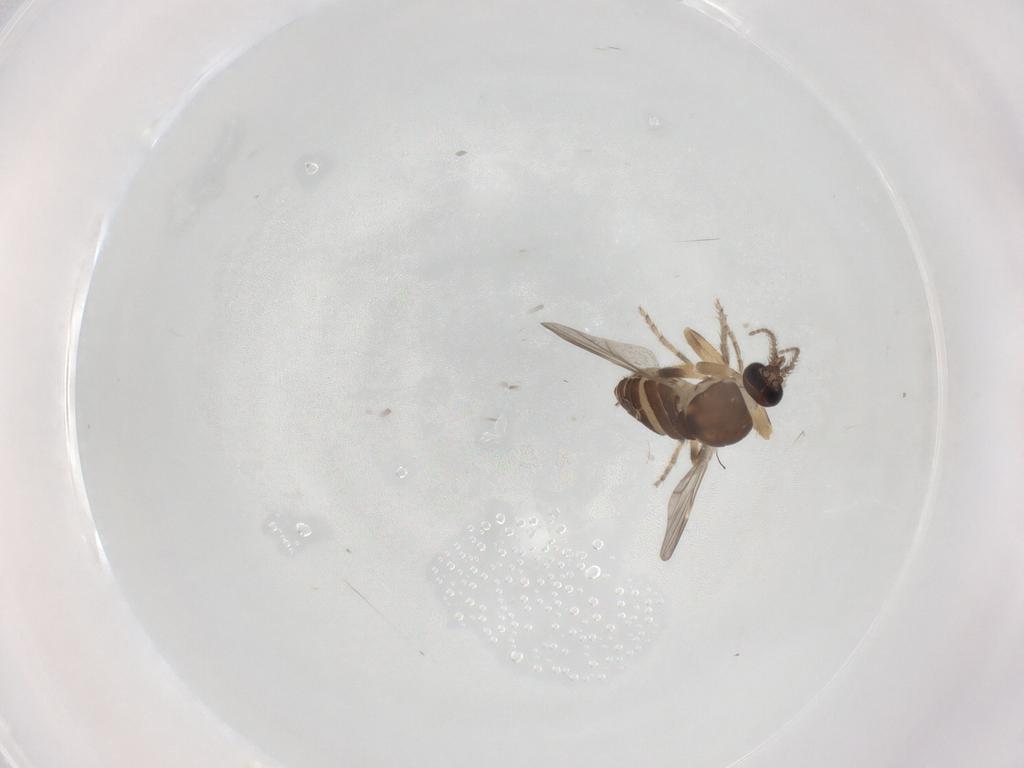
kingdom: Animalia
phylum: Arthropoda
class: Insecta
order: Diptera
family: Ceratopogonidae
